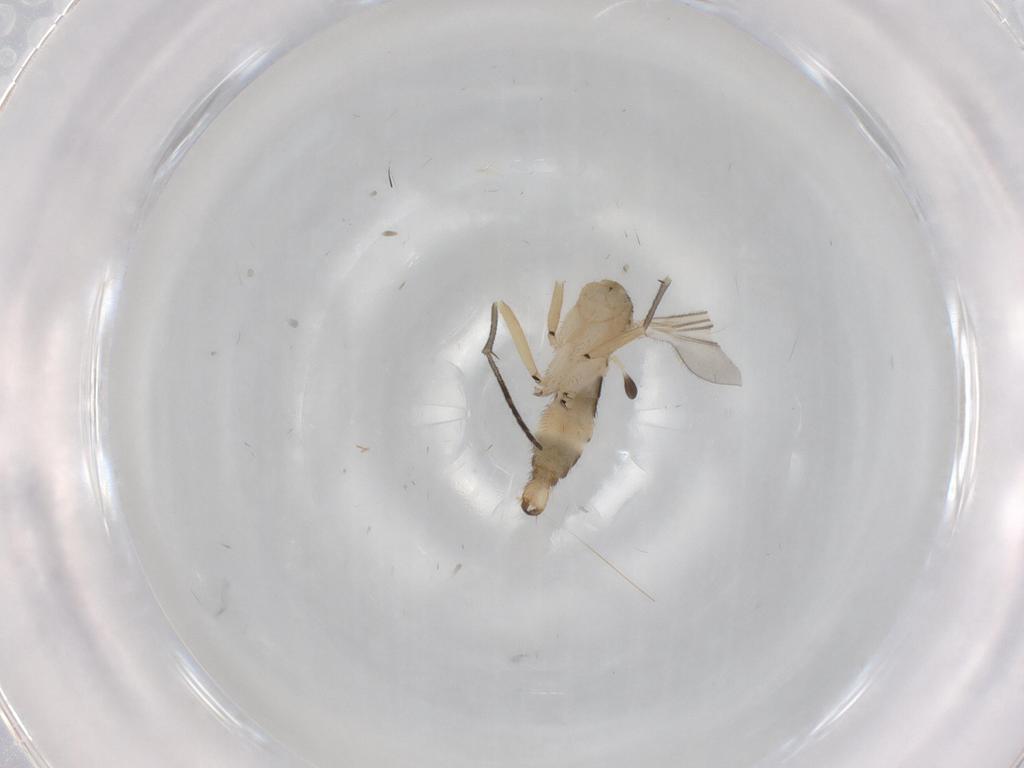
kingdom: Animalia
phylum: Arthropoda
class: Insecta
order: Diptera
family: Sciaridae
